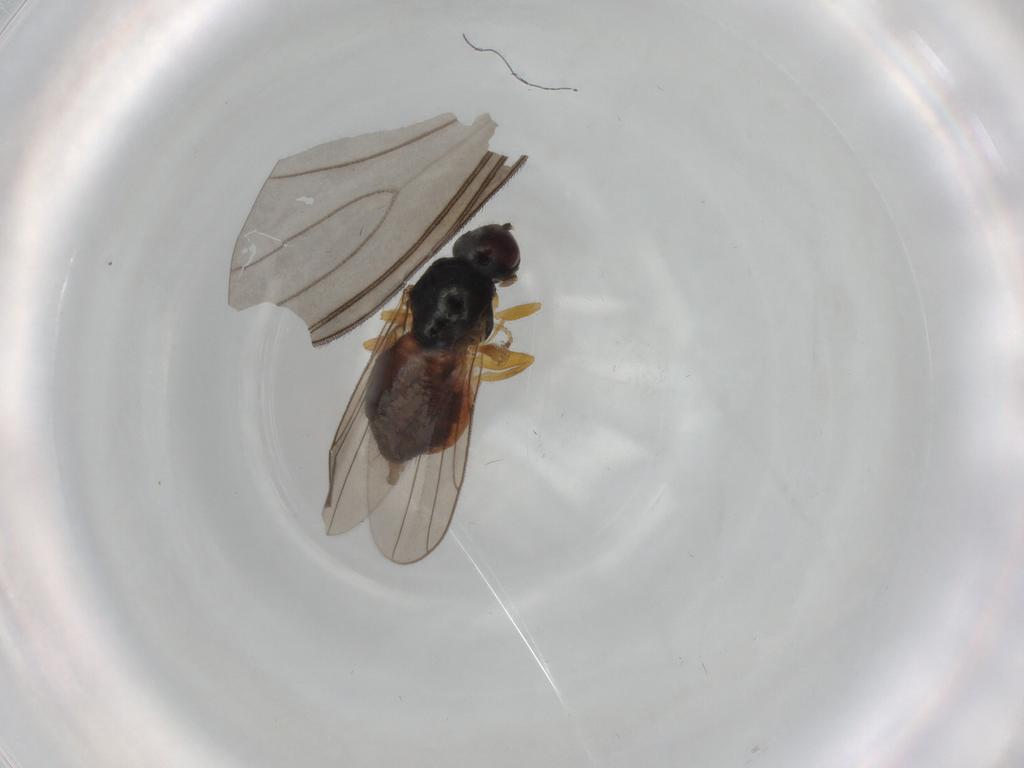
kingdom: Animalia
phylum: Arthropoda
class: Insecta
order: Diptera
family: Chloropidae
